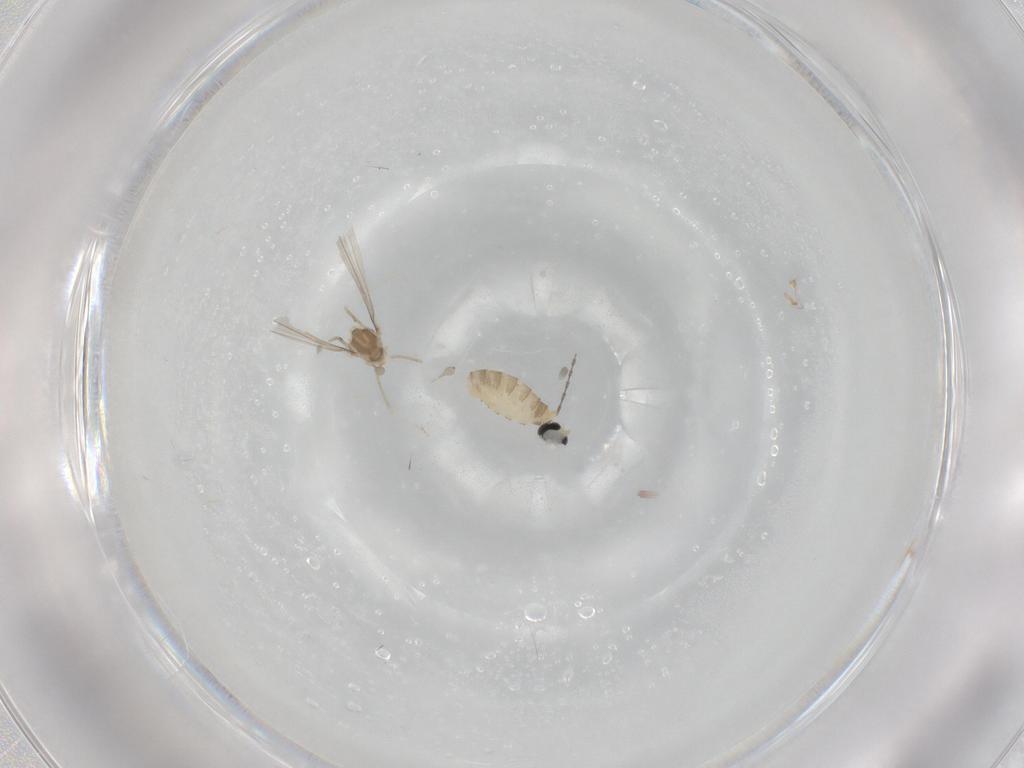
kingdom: Animalia
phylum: Arthropoda
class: Insecta
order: Diptera
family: Cecidomyiidae
